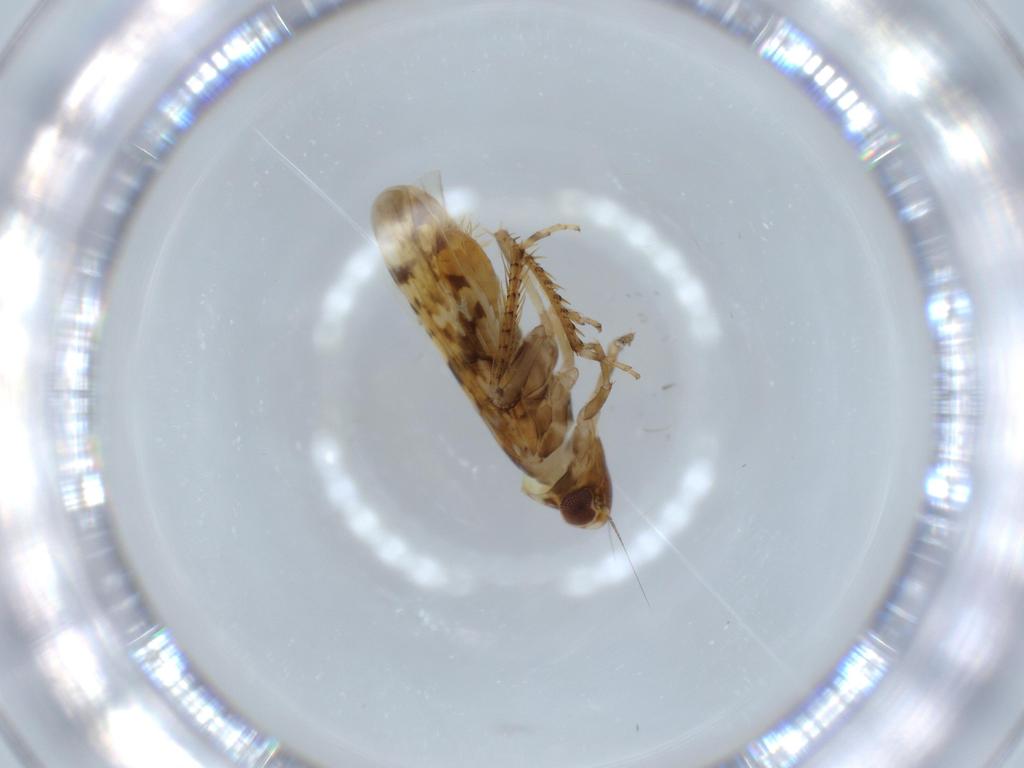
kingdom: Animalia
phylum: Arthropoda
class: Insecta
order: Hemiptera
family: Cicadellidae
